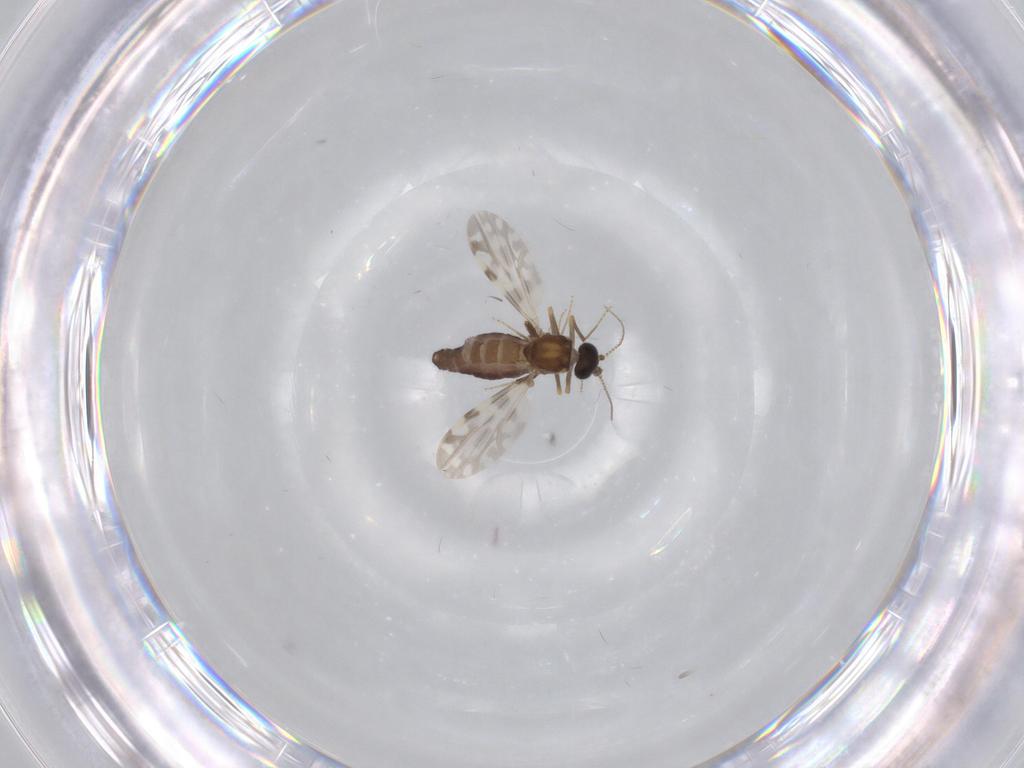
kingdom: Animalia
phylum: Arthropoda
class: Insecta
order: Diptera
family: Ceratopogonidae
